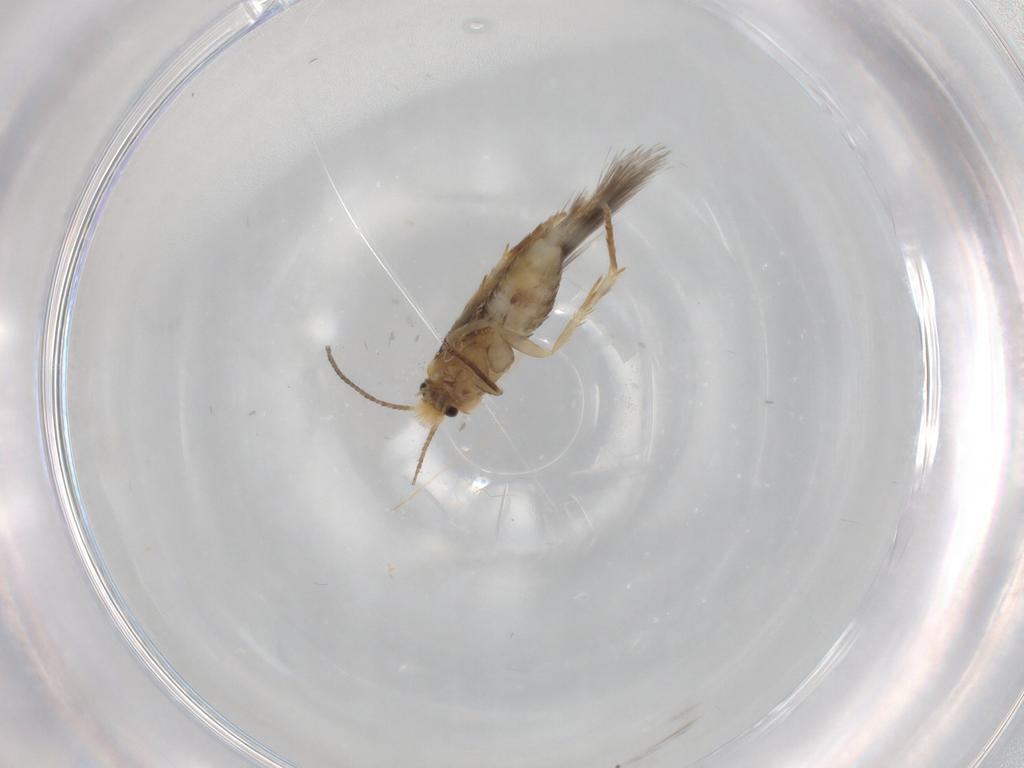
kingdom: Animalia
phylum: Arthropoda
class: Insecta
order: Lepidoptera
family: Nepticulidae
